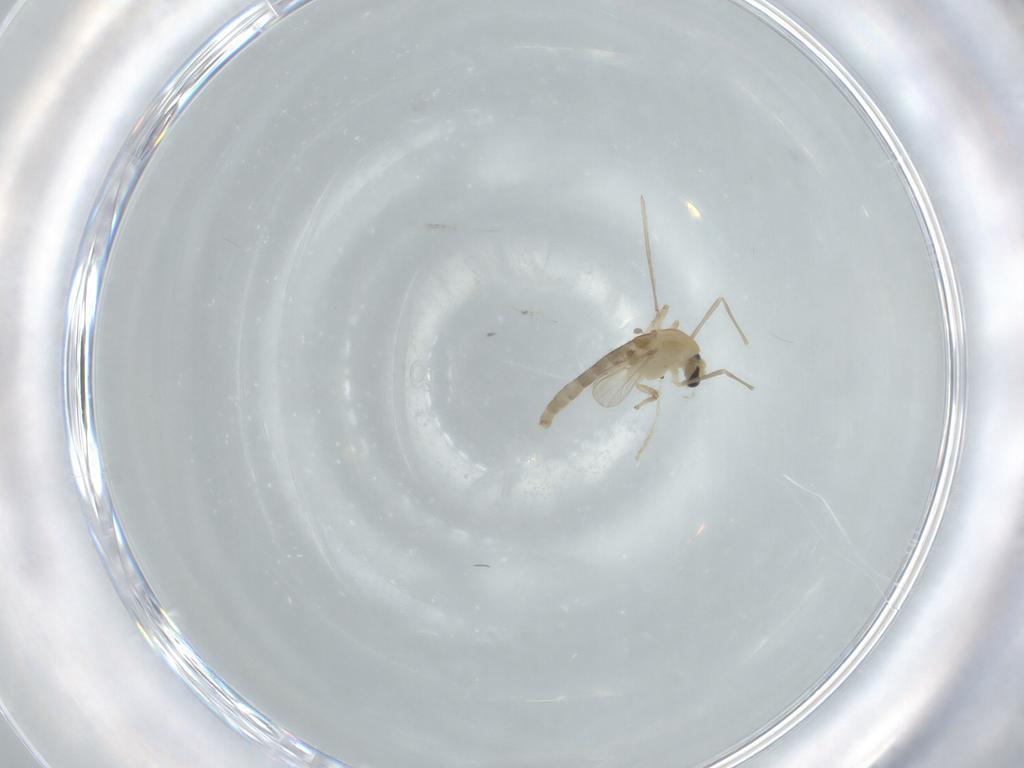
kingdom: Animalia
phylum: Arthropoda
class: Insecta
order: Diptera
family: Chironomidae
